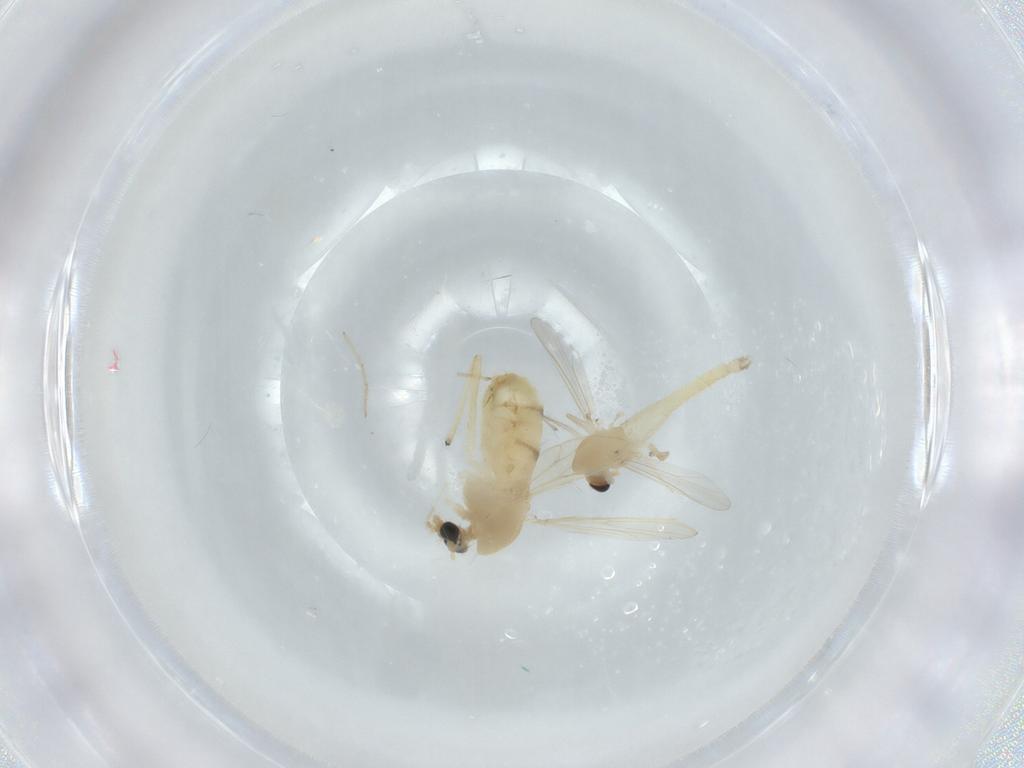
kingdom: Animalia
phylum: Arthropoda
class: Insecta
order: Diptera
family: Chironomidae
